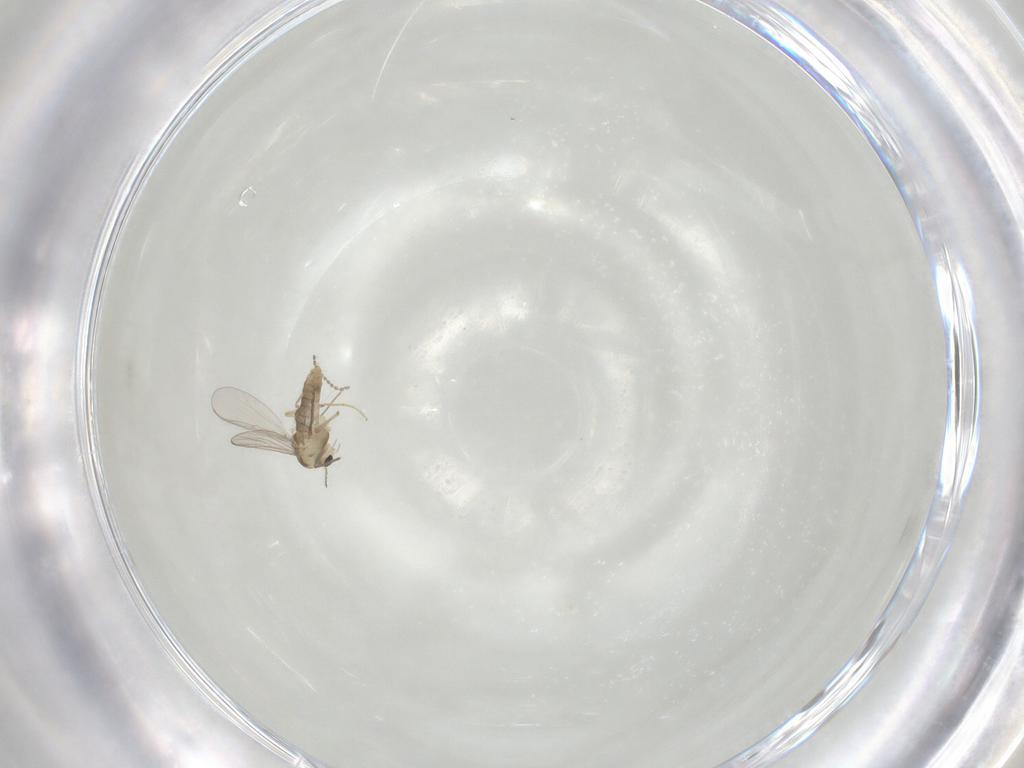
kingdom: Animalia
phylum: Arthropoda
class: Insecta
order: Diptera
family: Chironomidae
